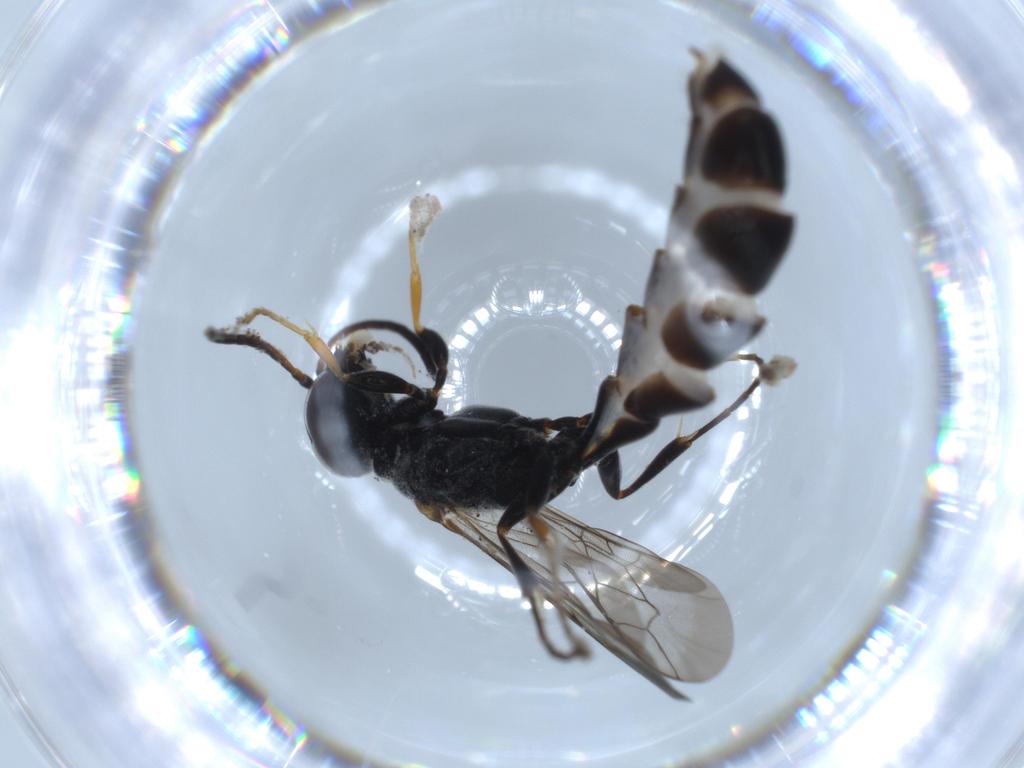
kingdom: Animalia
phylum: Arthropoda
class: Insecta
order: Hymenoptera
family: Crabronidae
